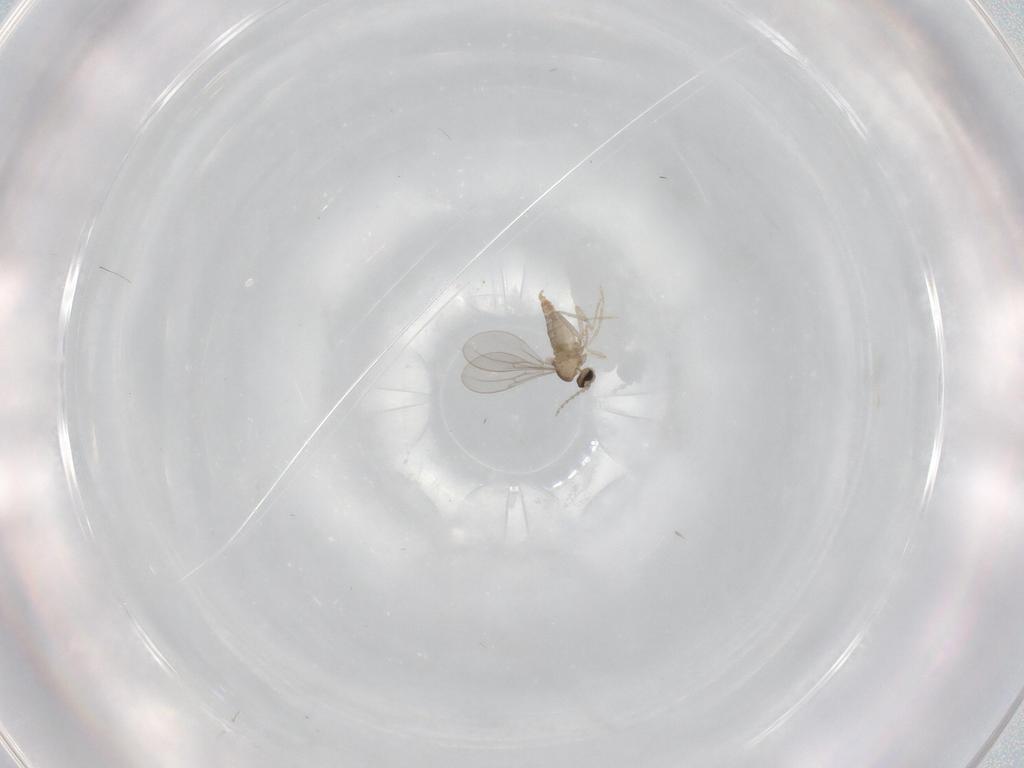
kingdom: Animalia
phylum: Arthropoda
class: Insecta
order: Diptera
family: Cecidomyiidae
